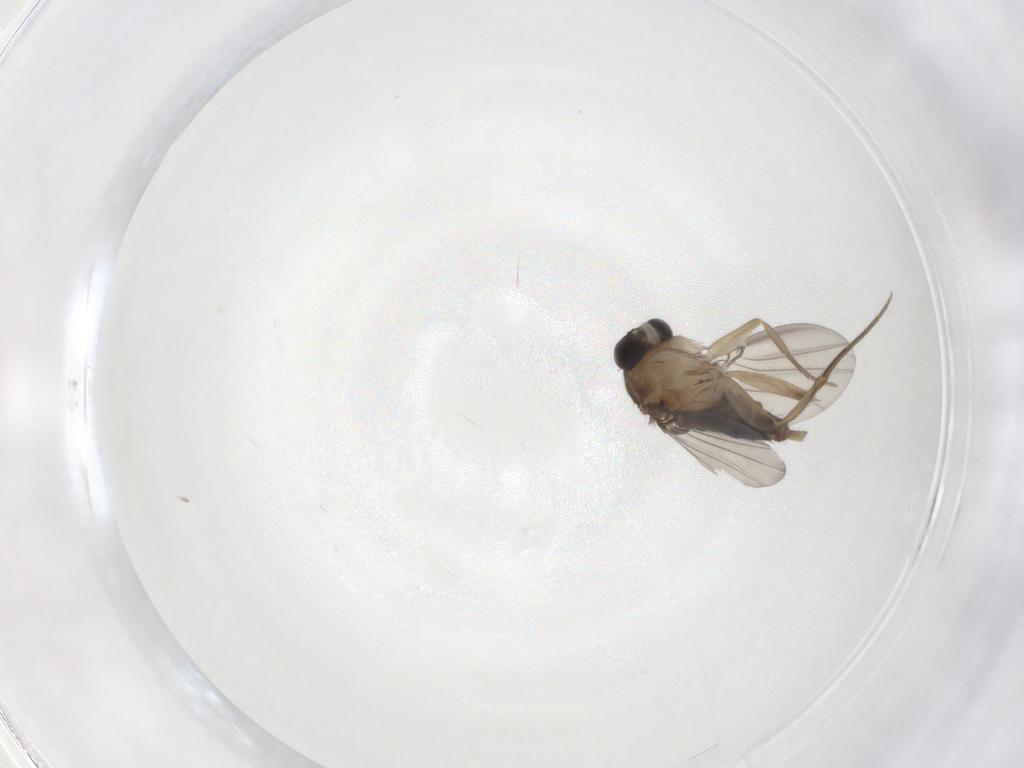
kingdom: Animalia
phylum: Arthropoda
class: Insecta
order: Diptera
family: Phoridae
